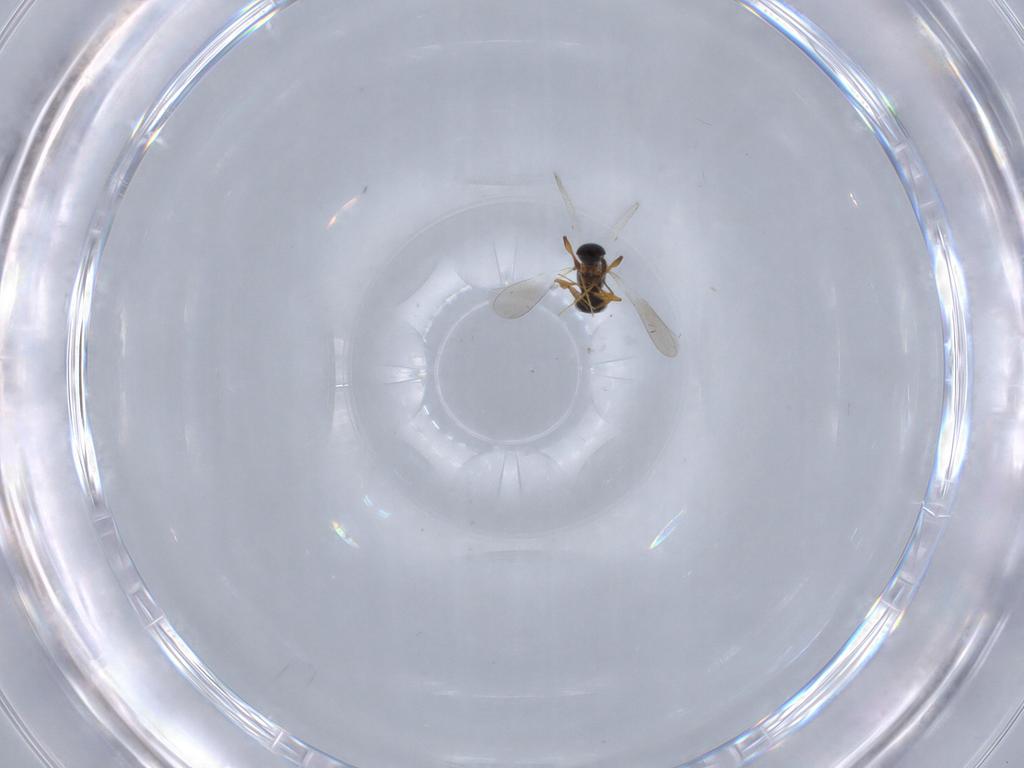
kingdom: Animalia
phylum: Arthropoda
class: Insecta
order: Hymenoptera
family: Platygastridae
